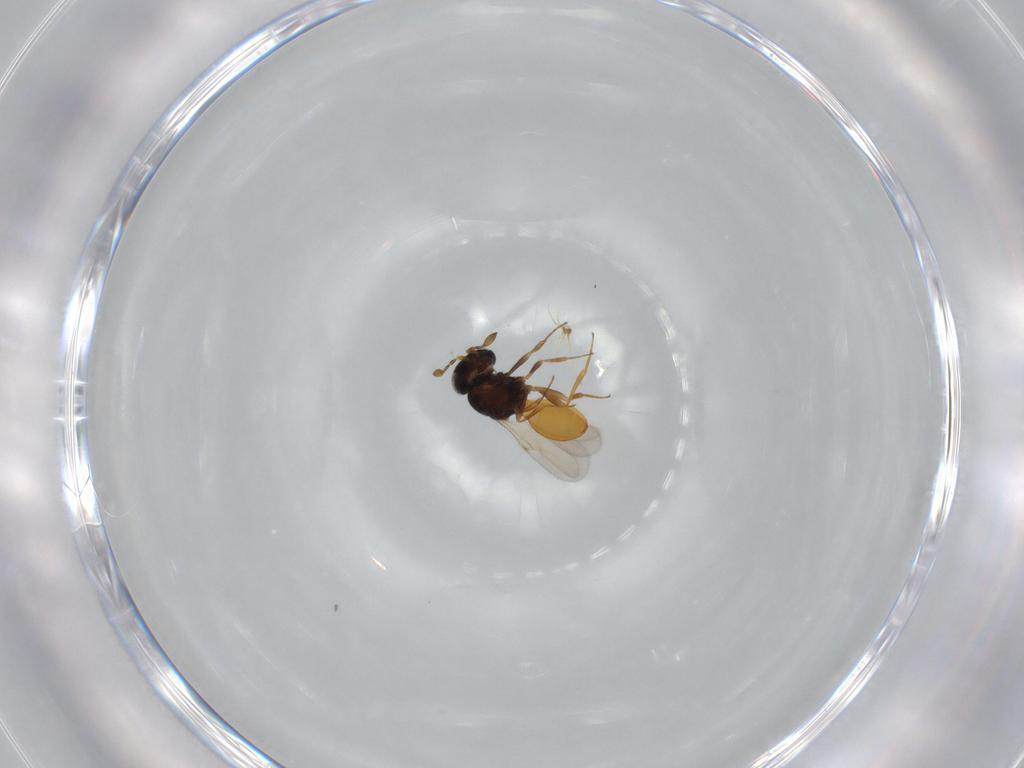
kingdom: Animalia
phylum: Arthropoda
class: Insecta
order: Hymenoptera
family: Scelionidae
